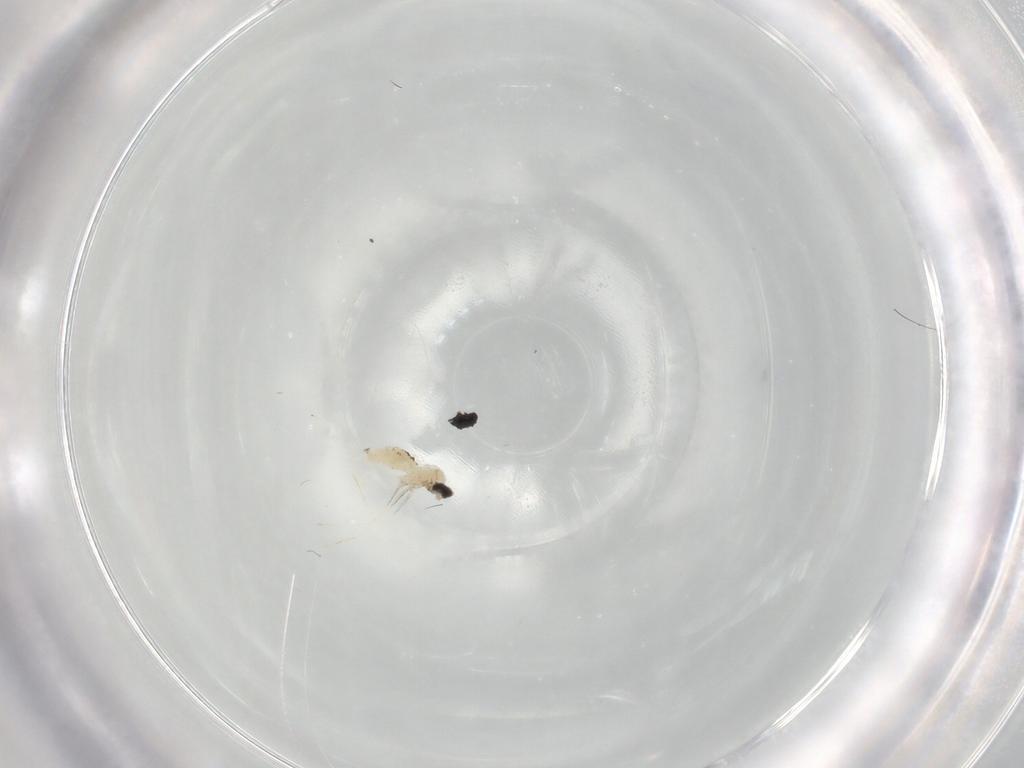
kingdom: Animalia
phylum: Arthropoda
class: Insecta
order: Diptera
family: Cecidomyiidae
